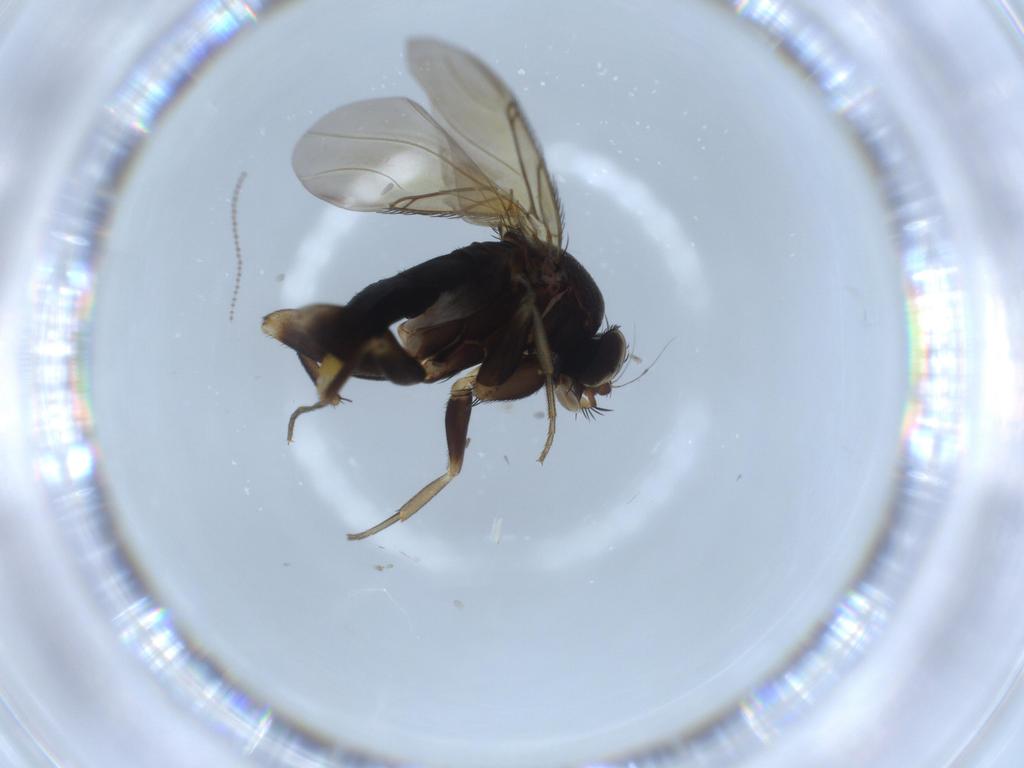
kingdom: Animalia
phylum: Arthropoda
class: Insecta
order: Diptera
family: Phoridae
